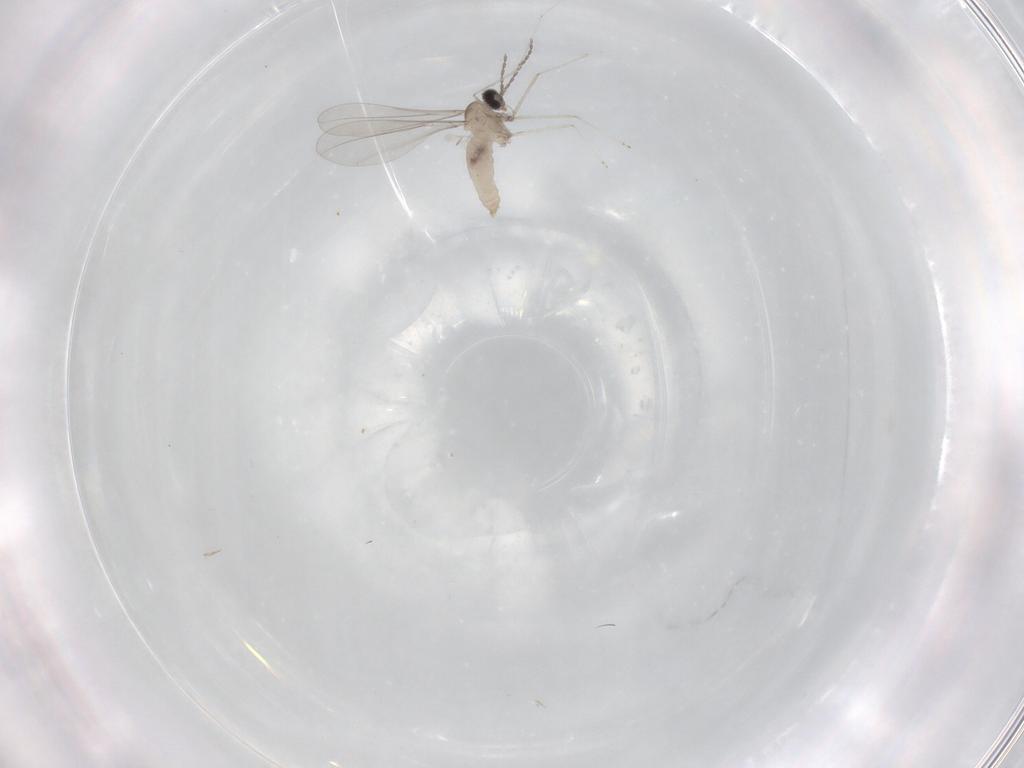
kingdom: Animalia
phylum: Arthropoda
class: Insecta
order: Diptera
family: Cecidomyiidae
